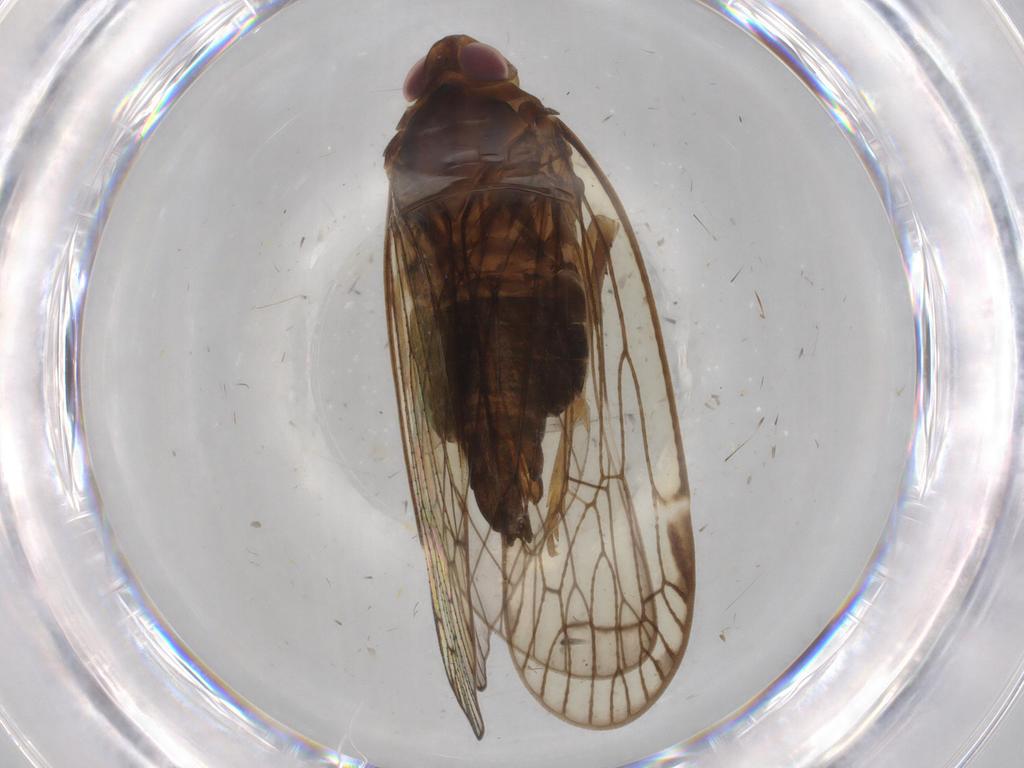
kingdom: Animalia
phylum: Arthropoda
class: Insecta
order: Hemiptera
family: Cixiidae
